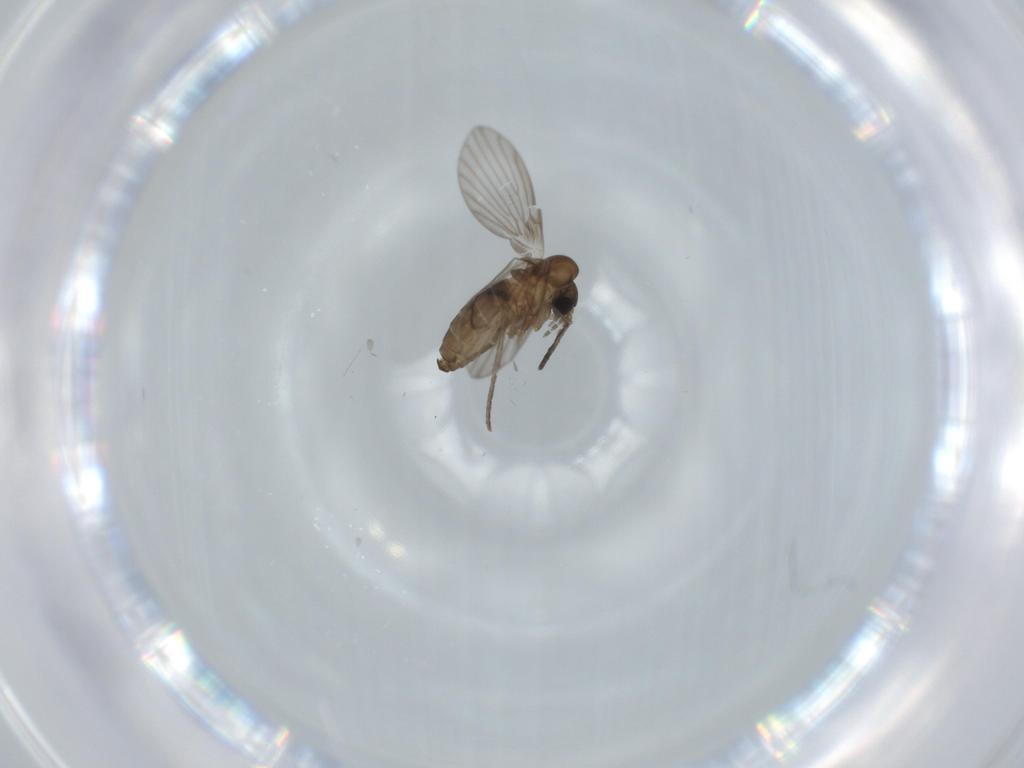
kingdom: Animalia
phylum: Arthropoda
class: Insecta
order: Diptera
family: Psychodidae
